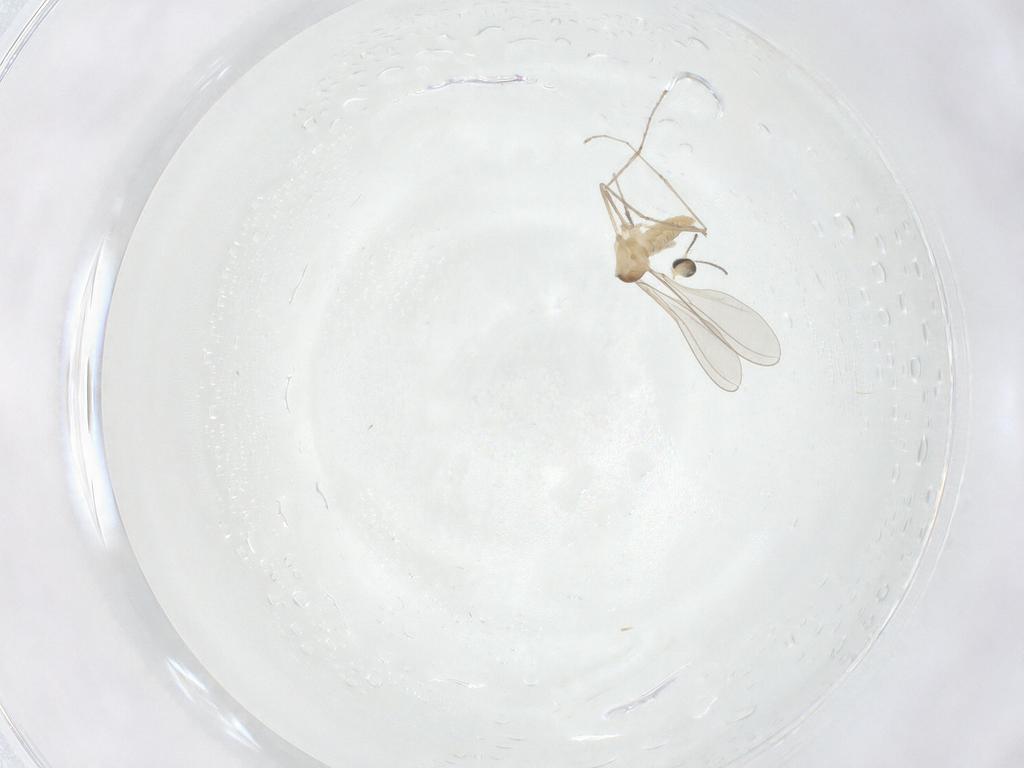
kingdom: Animalia
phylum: Arthropoda
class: Insecta
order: Diptera
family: Cecidomyiidae
